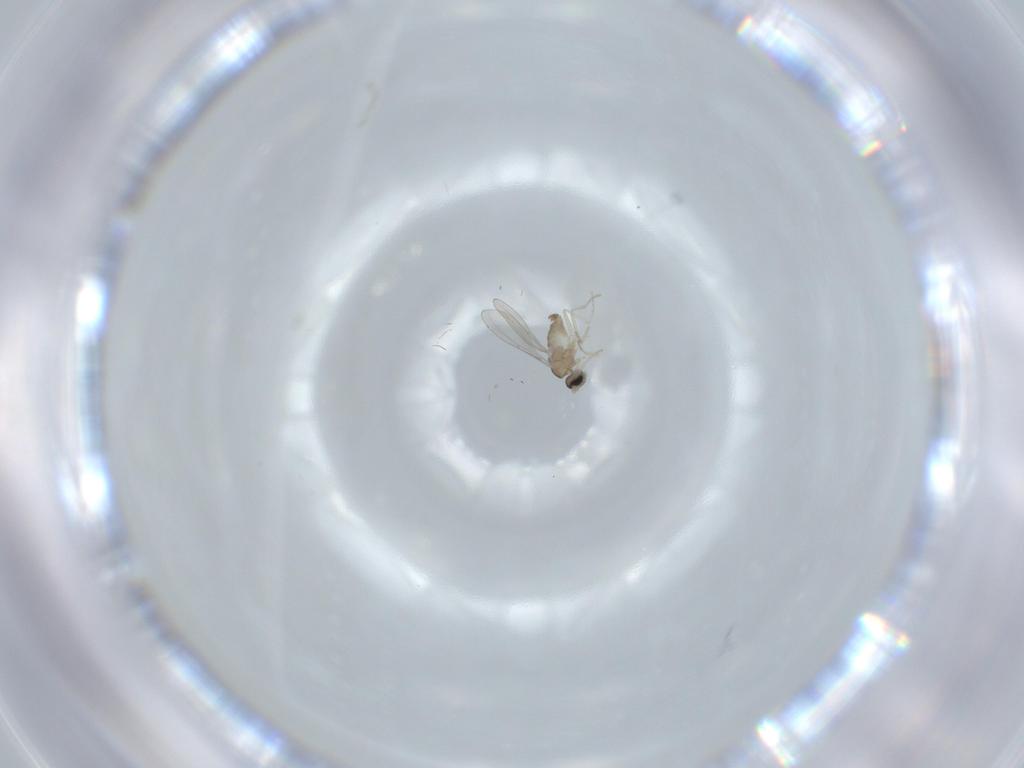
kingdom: Animalia
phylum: Arthropoda
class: Insecta
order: Diptera
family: Cecidomyiidae
